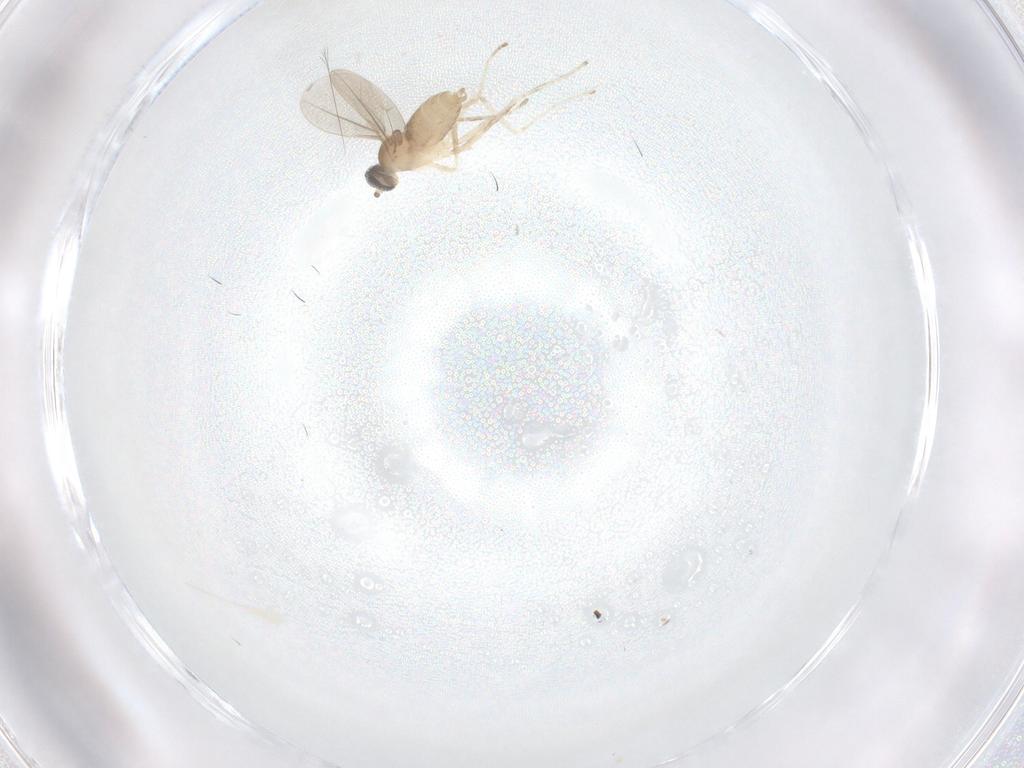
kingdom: Animalia
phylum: Arthropoda
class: Insecta
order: Diptera
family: Cecidomyiidae
